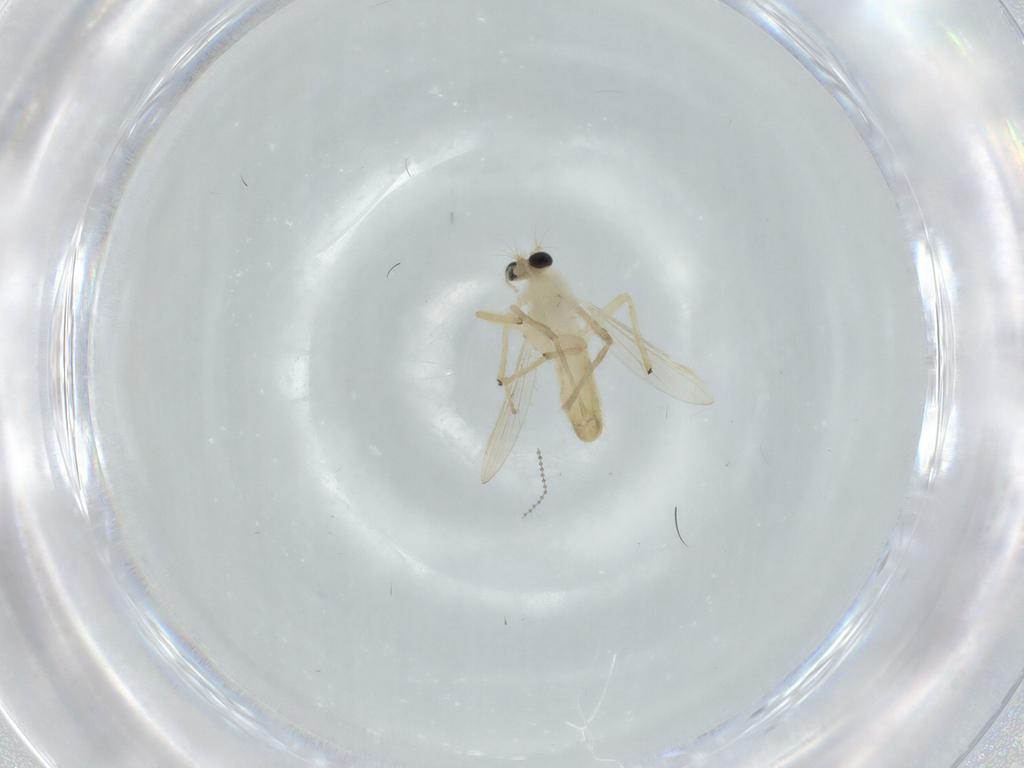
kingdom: Animalia
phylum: Arthropoda
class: Insecta
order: Diptera
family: Chironomidae
